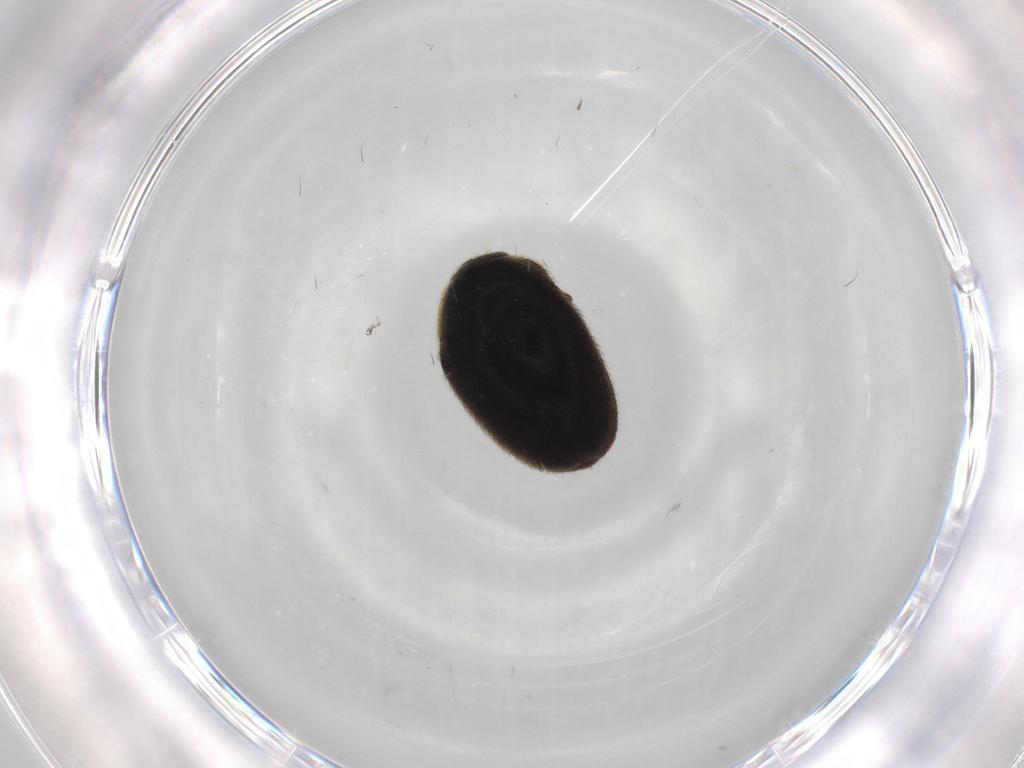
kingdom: Animalia
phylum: Arthropoda
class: Insecta
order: Coleoptera
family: Dermestidae
